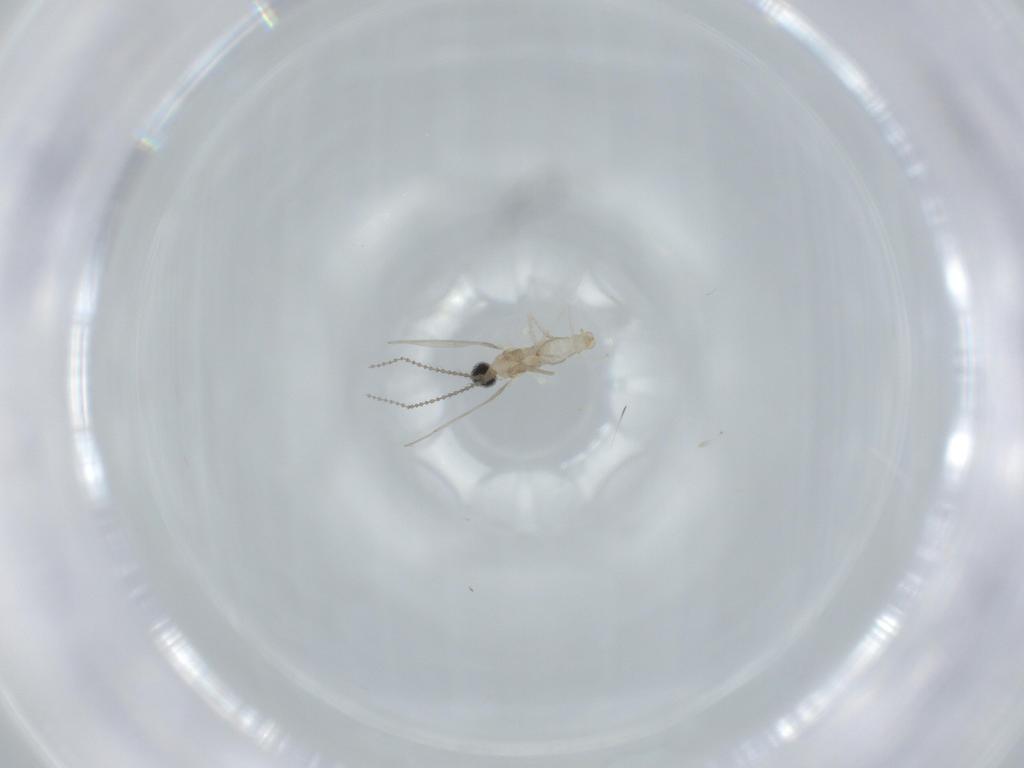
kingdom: Animalia
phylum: Arthropoda
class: Insecta
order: Diptera
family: Cecidomyiidae
